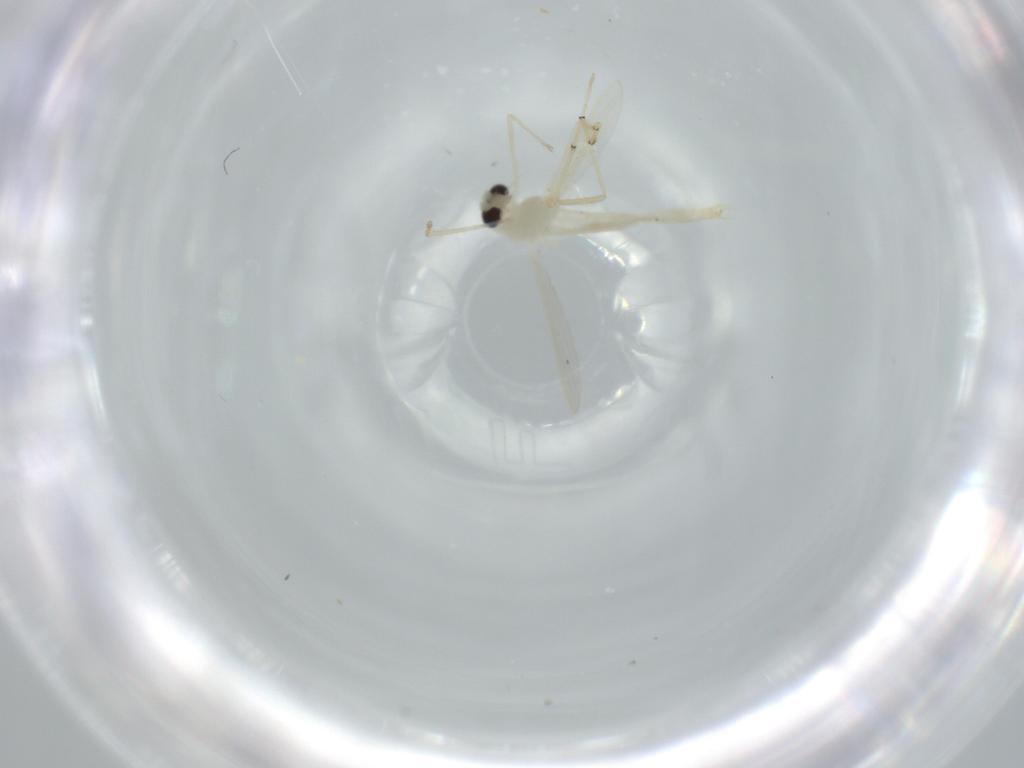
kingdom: Animalia
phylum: Arthropoda
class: Insecta
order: Diptera
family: Chironomidae
